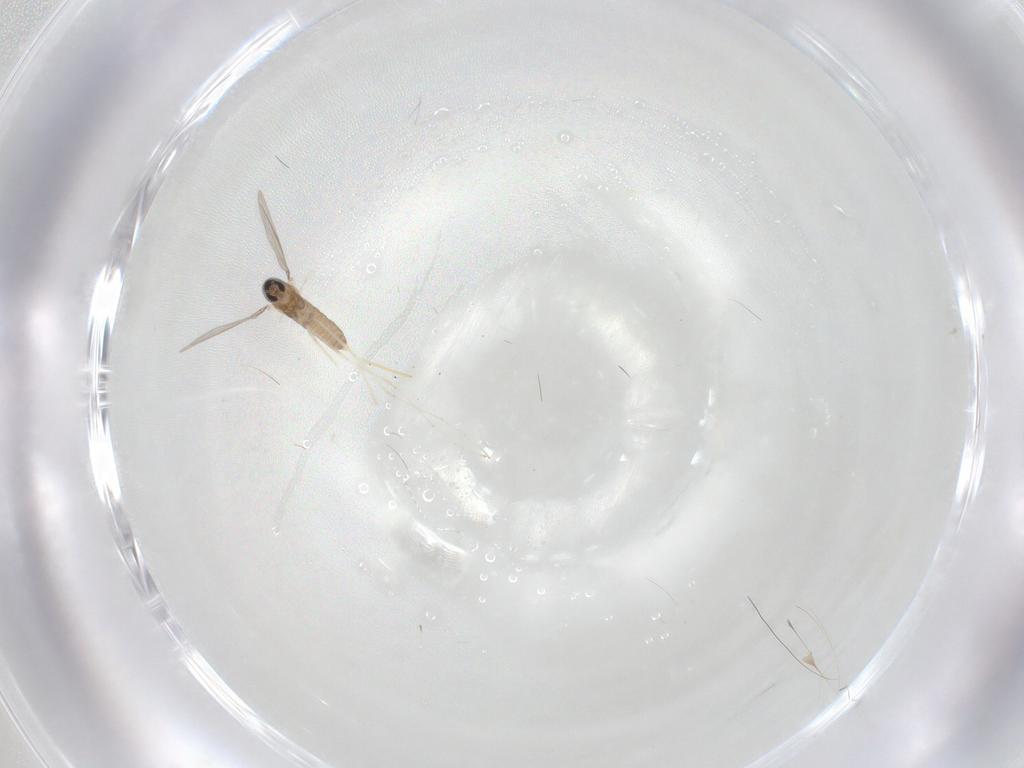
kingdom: Animalia
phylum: Arthropoda
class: Insecta
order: Diptera
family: Cecidomyiidae
